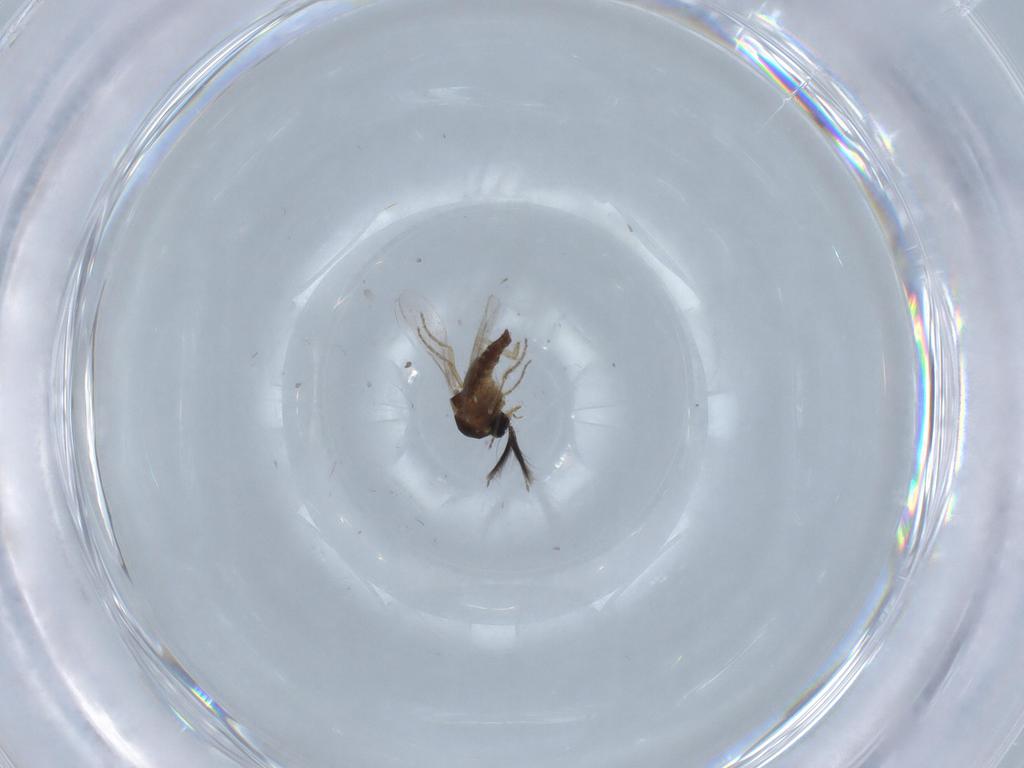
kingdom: Animalia
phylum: Arthropoda
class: Insecta
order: Diptera
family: Ceratopogonidae
